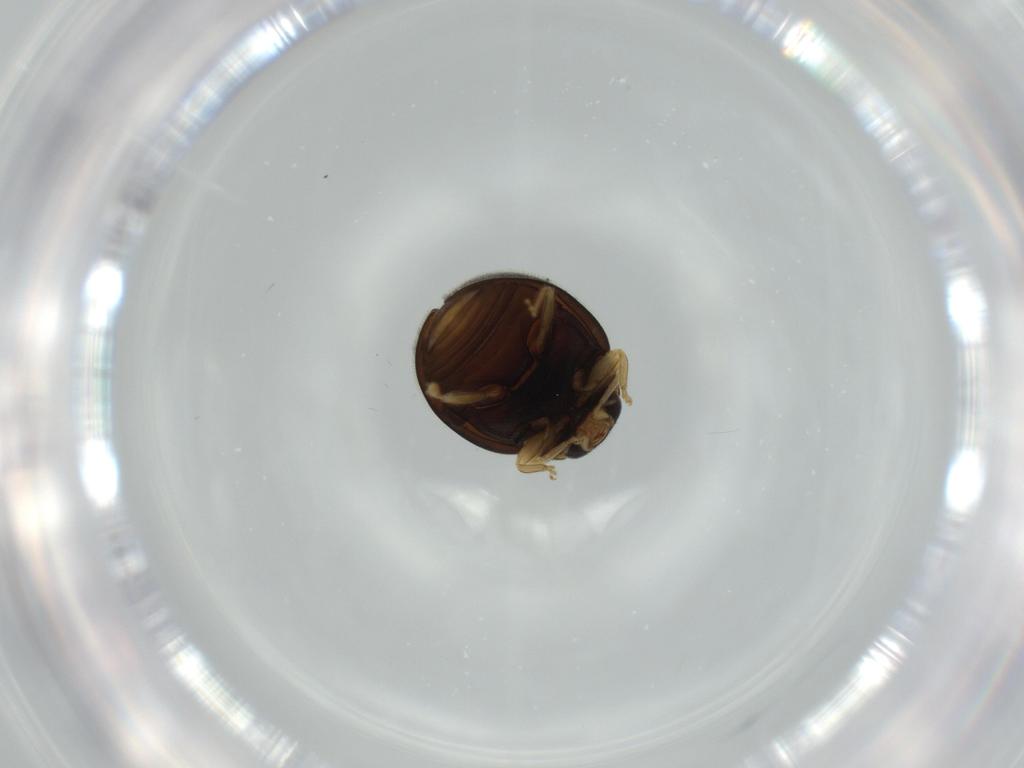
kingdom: Animalia
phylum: Arthropoda
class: Insecta
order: Coleoptera
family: Coccinellidae
